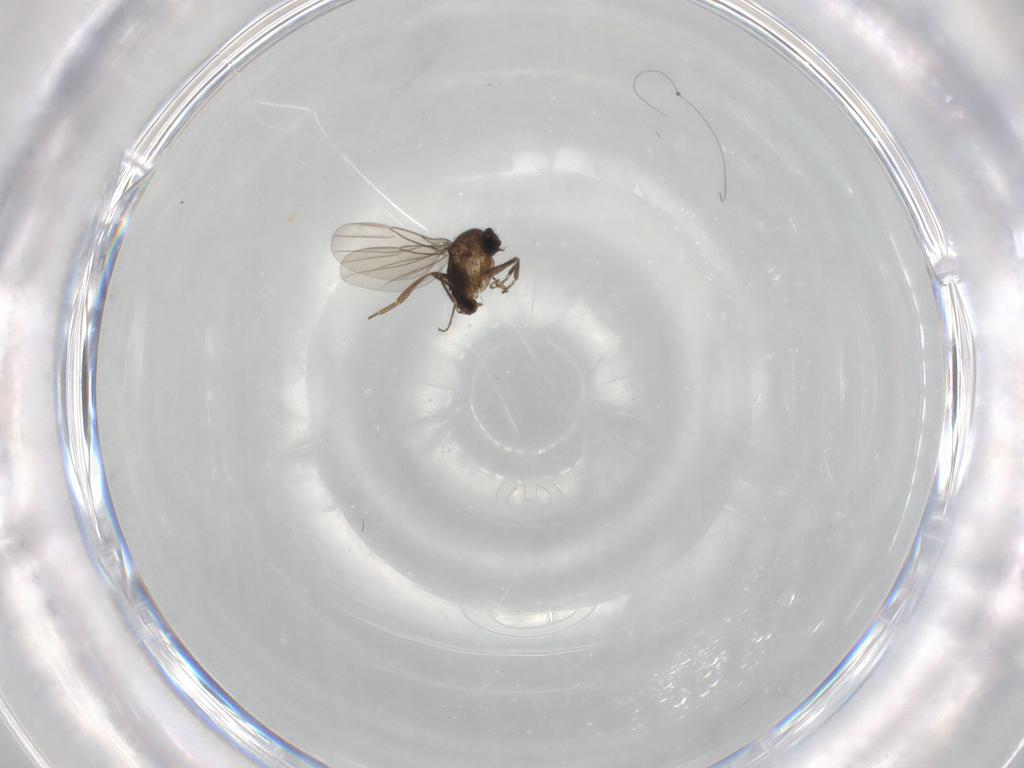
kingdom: Animalia
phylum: Arthropoda
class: Insecta
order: Diptera
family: Phoridae
